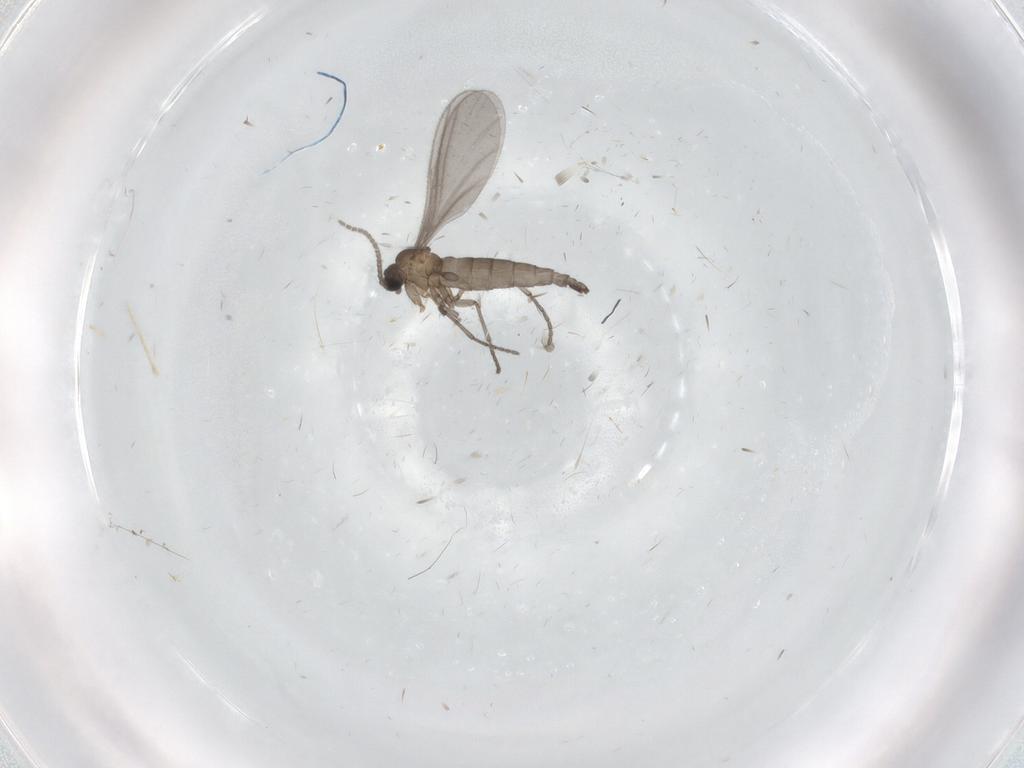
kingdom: Animalia
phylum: Arthropoda
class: Insecta
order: Diptera
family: Sciaridae
